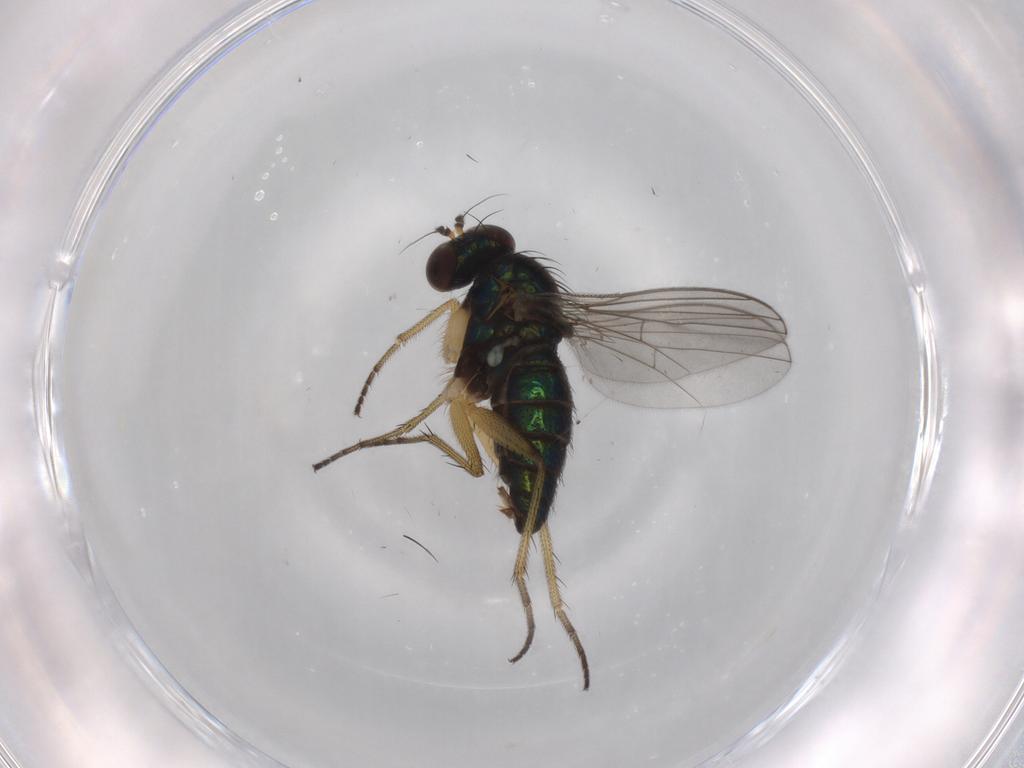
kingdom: Animalia
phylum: Arthropoda
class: Insecta
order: Diptera
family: Dolichopodidae
